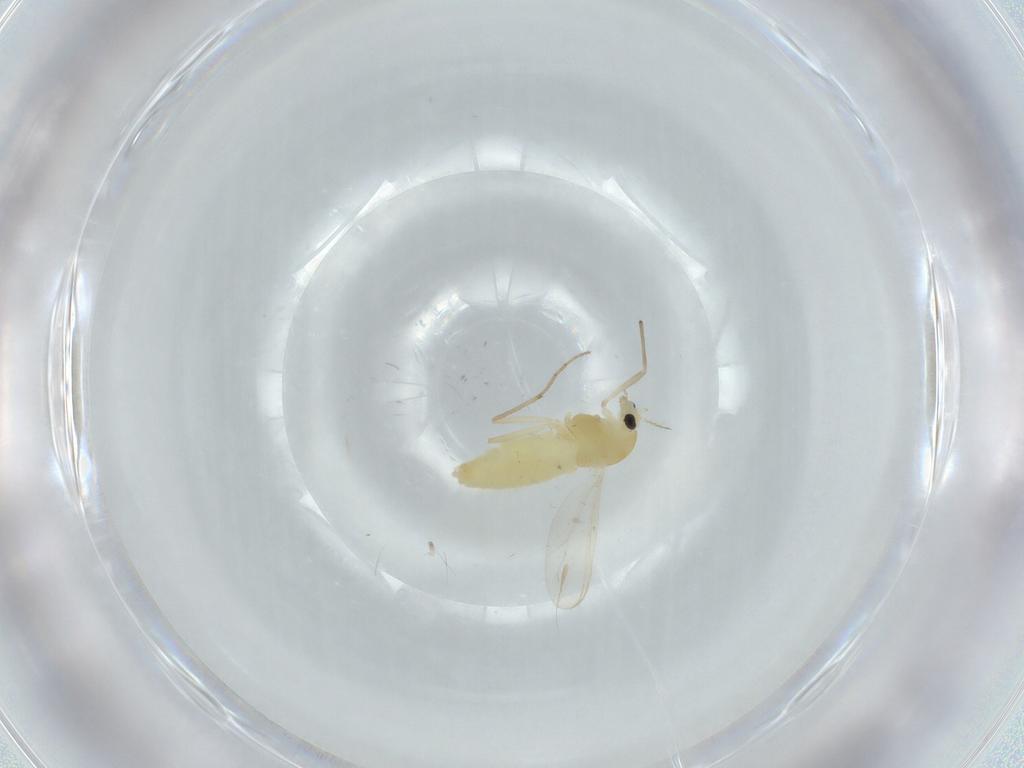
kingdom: Animalia
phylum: Arthropoda
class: Insecta
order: Diptera
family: Chironomidae
